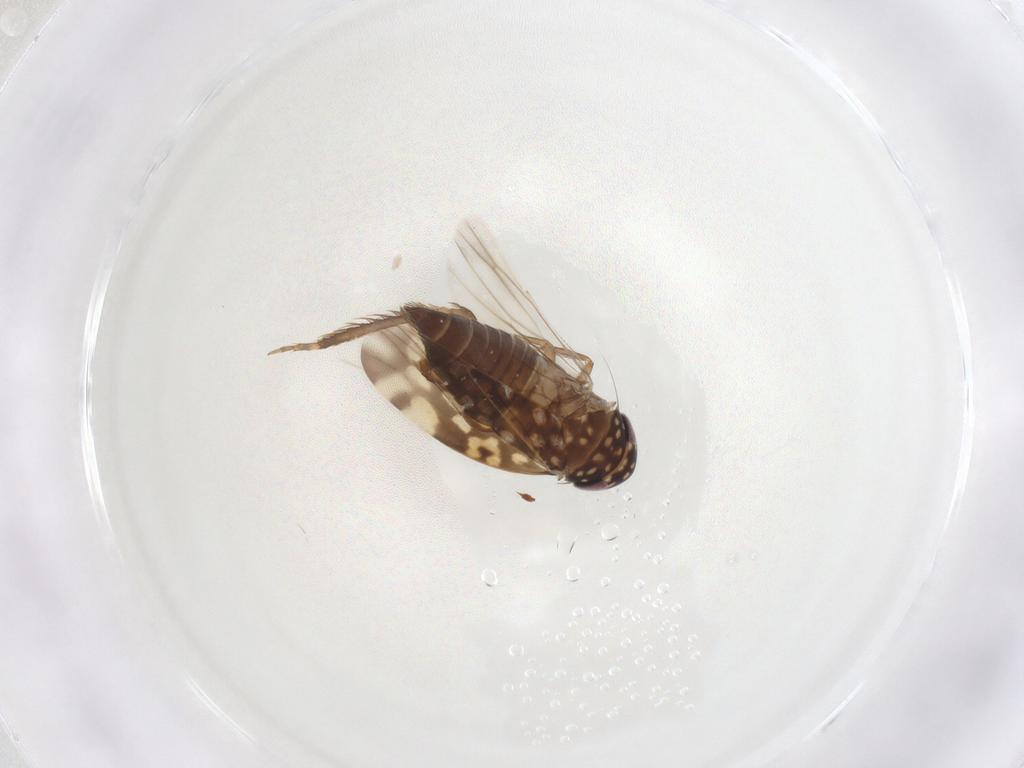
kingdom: Animalia
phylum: Arthropoda
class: Insecta
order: Hemiptera
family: Cicadellidae
